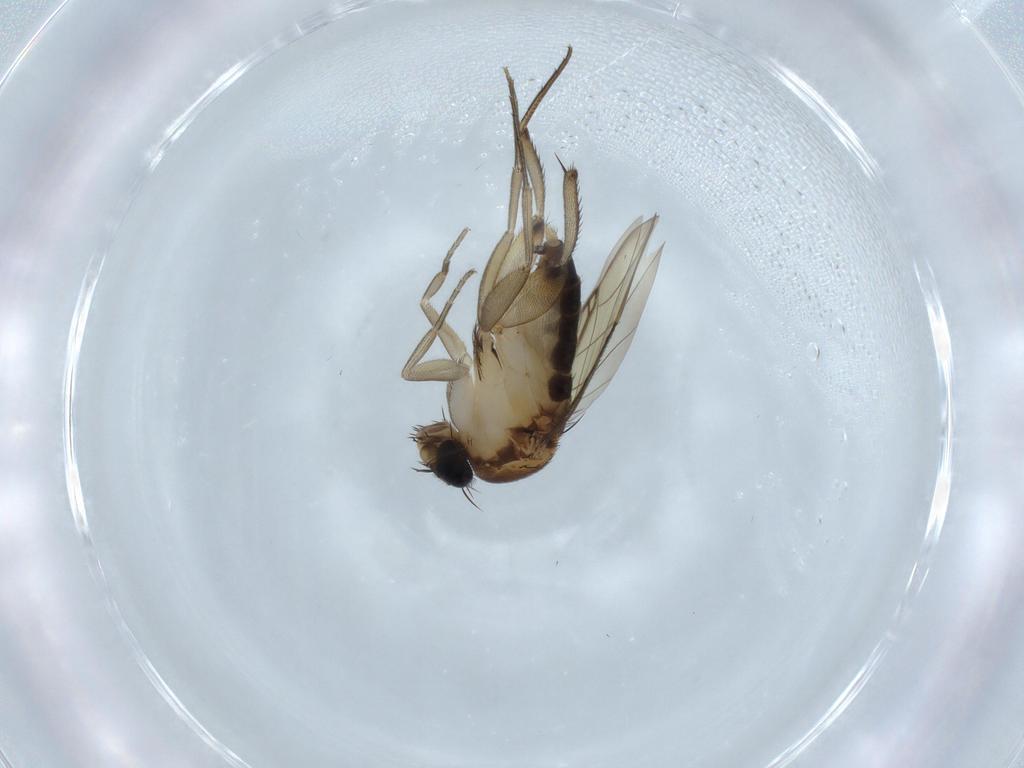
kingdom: Animalia
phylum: Arthropoda
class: Insecta
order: Diptera
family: Phoridae
